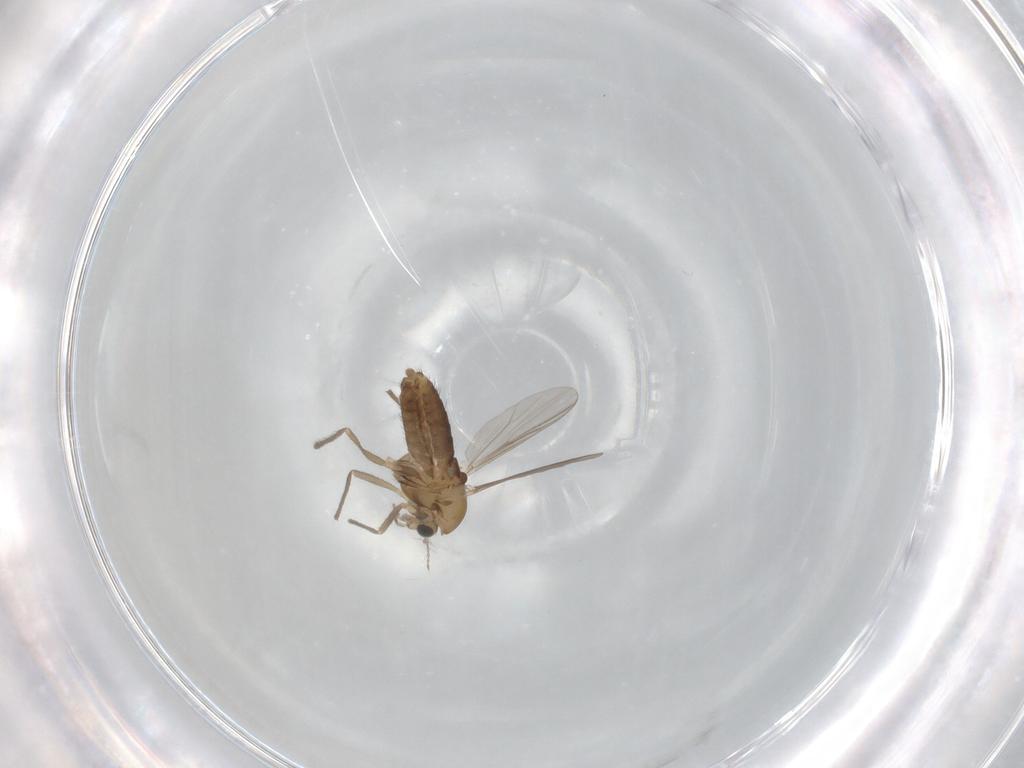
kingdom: Animalia
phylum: Arthropoda
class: Insecta
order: Diptera
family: Chironomidae
